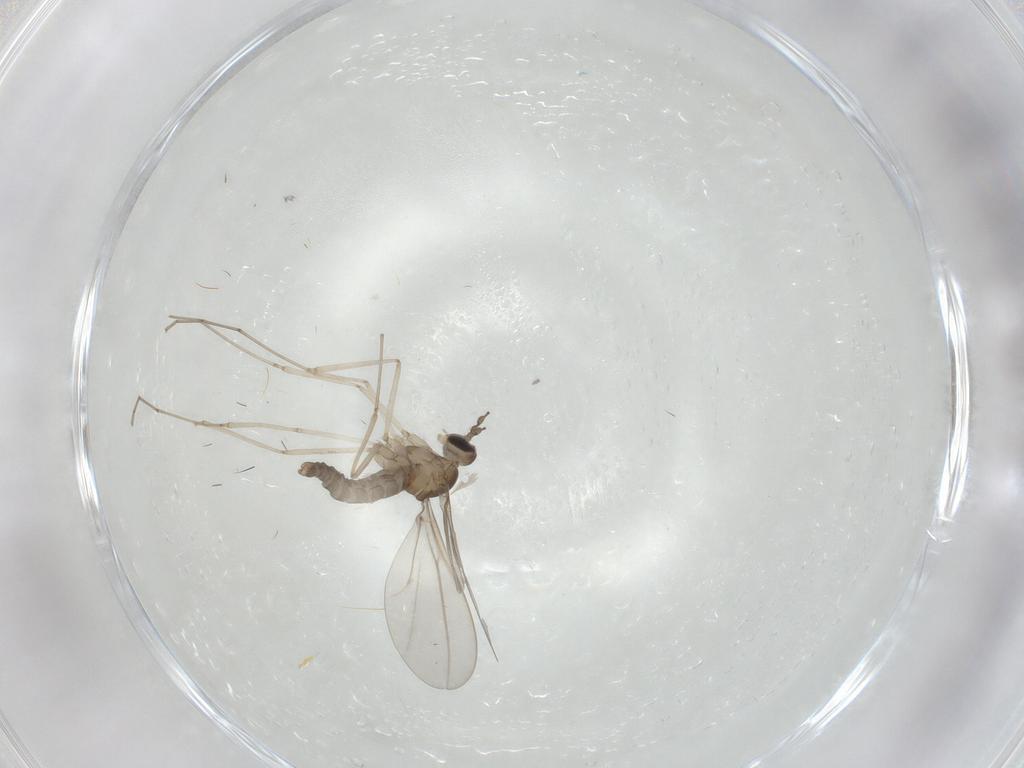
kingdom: Animalia
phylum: Arthropoda
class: Insecta
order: Diptera
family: Cecidomyiidae
